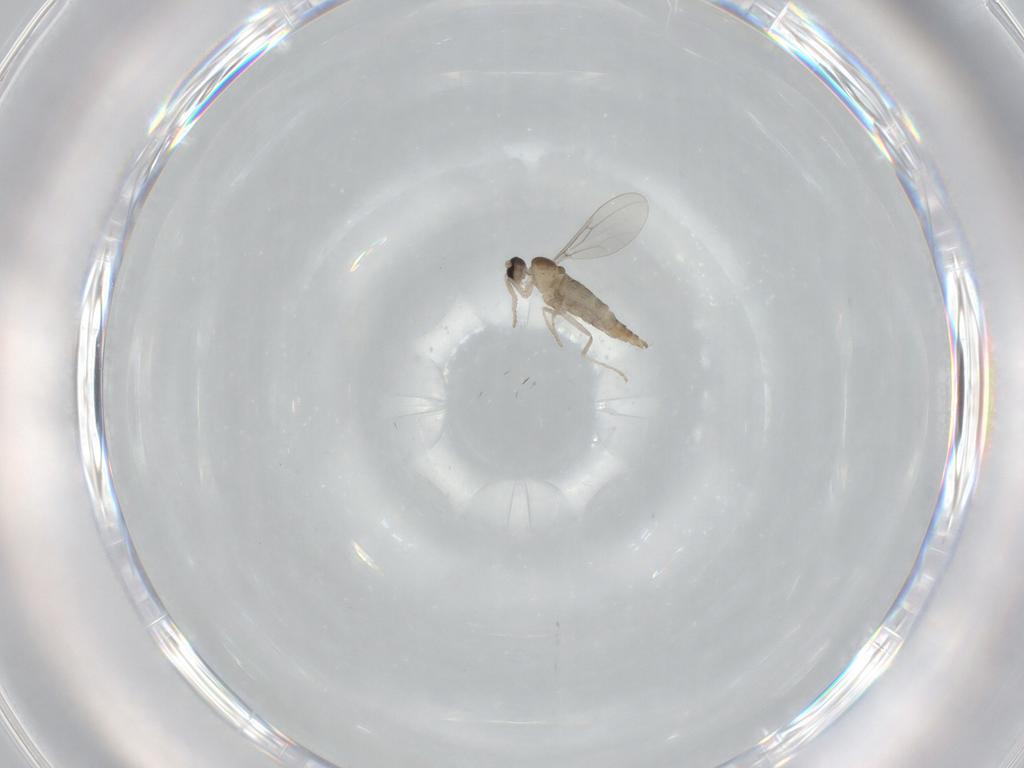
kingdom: Animalia
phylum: Arthropoda
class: Insecta
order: Diptera
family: Cecidomyiidae
